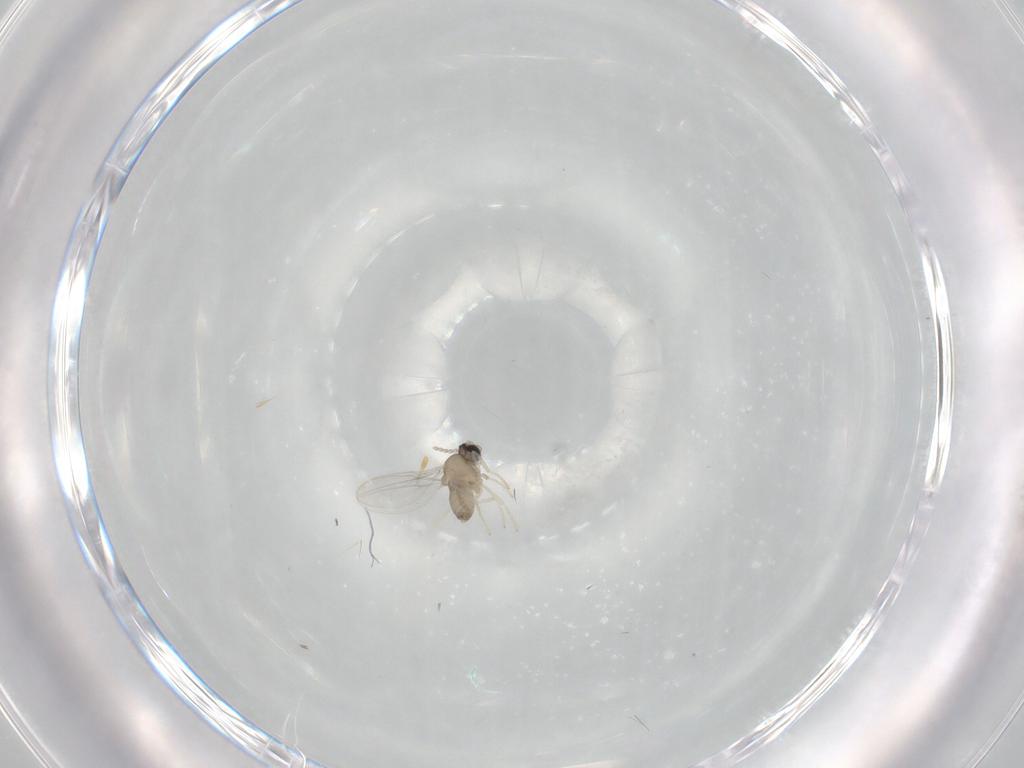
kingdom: Animalia
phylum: Arthropoda
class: Insecta
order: Diptera
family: Cecidomyiidae
